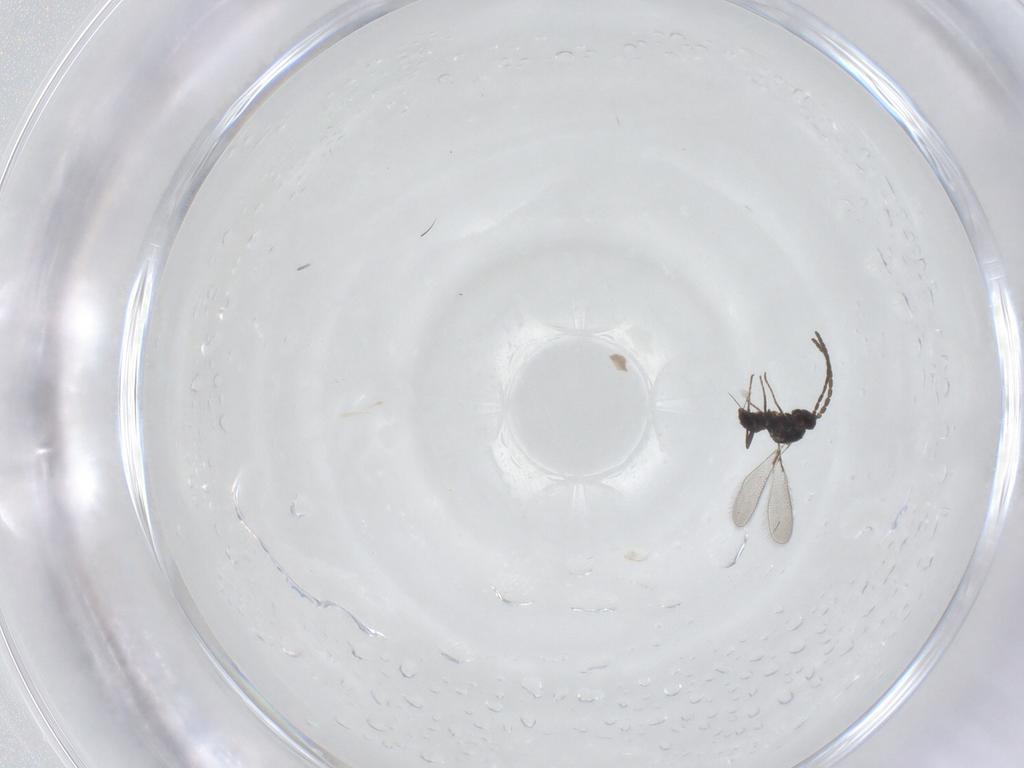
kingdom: Animalia
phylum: Arthropoda
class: Insecta
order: Hymenoptera
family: Mymaridae
